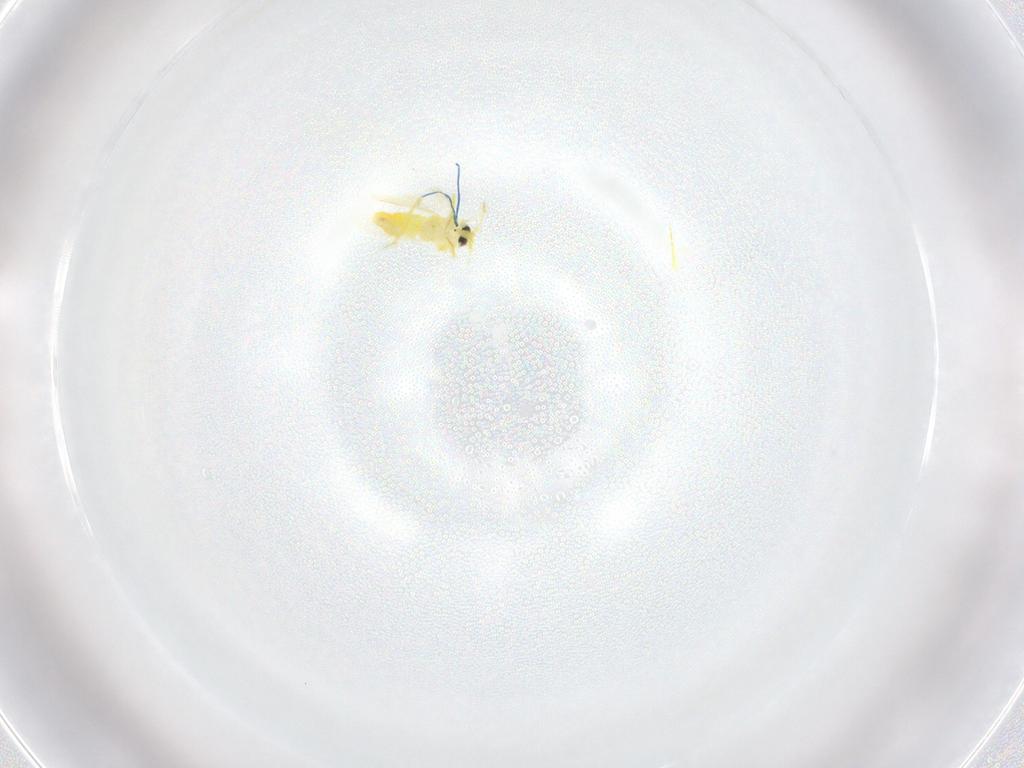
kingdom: Animalia
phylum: Arthropoda
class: Insecta
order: Hemiptera
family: Aleyrodidae
